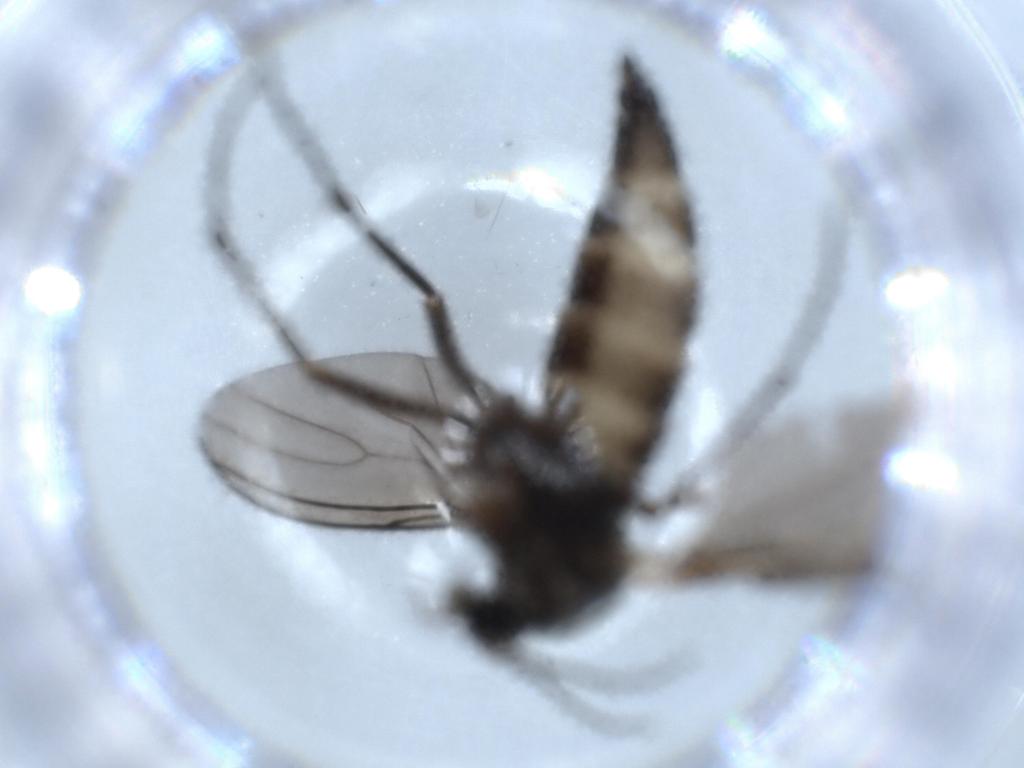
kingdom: Animalia
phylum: Arthropoda
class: Insecta
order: Diptera
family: Sciaridae
